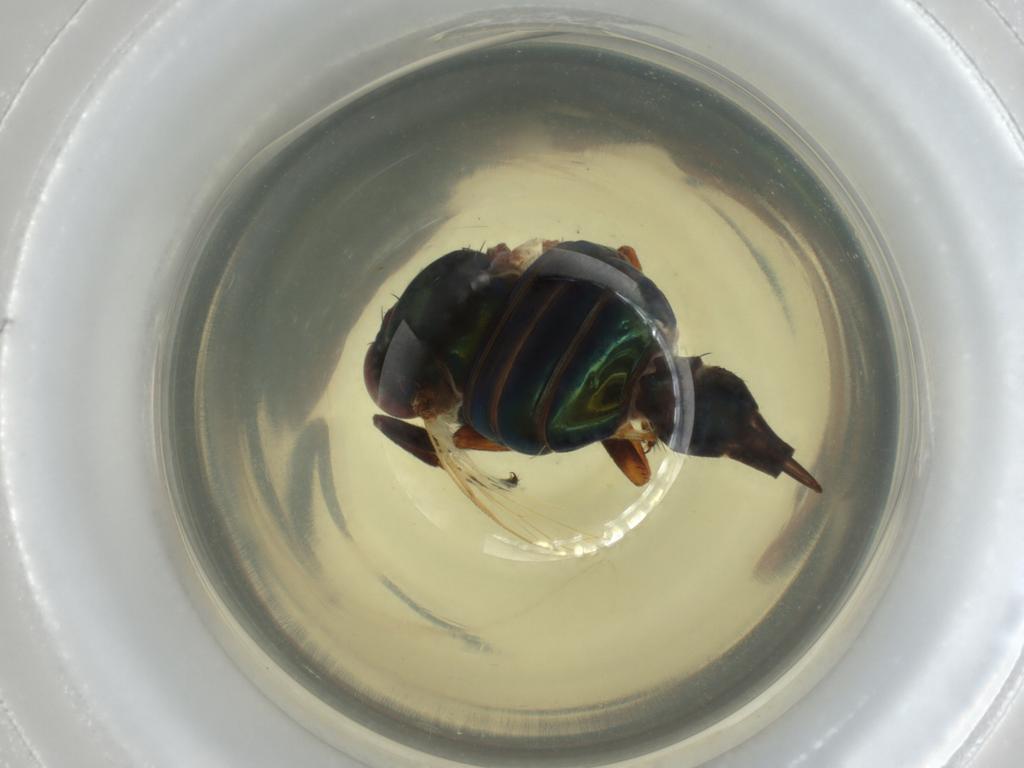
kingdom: Animalia
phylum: Arthropoda
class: Insecta
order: Diptera
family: Dolichopodidae
